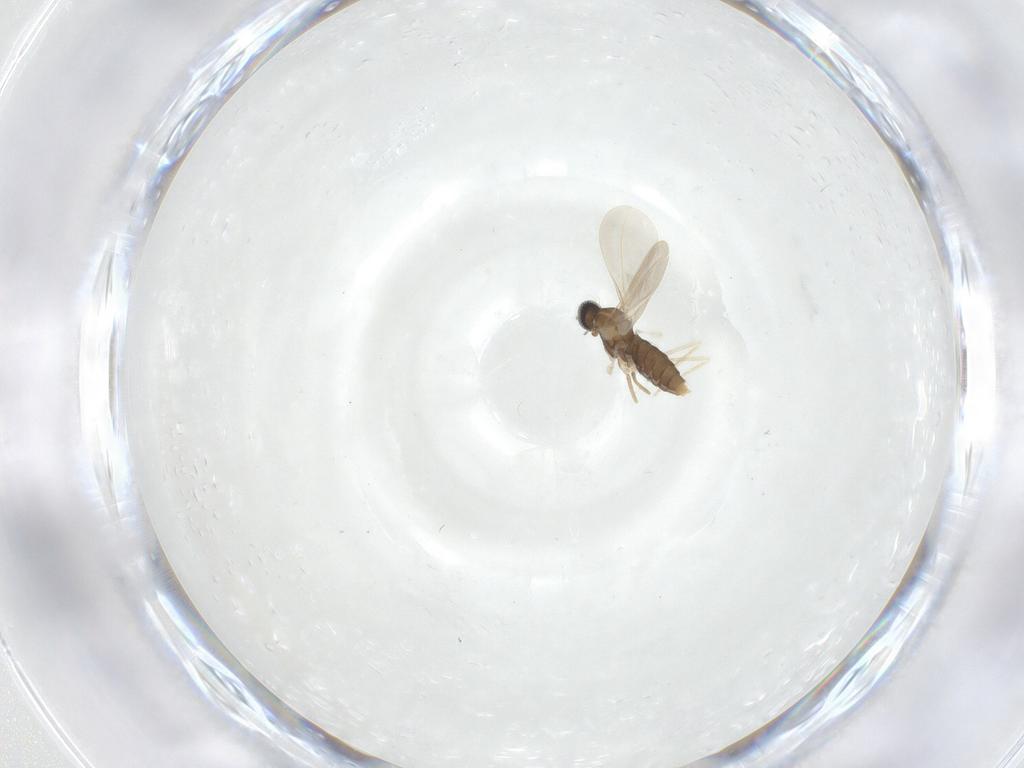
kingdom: Animalia
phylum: Arthropoda
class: Insecta
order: Diptera
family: Cecidomyiidae
